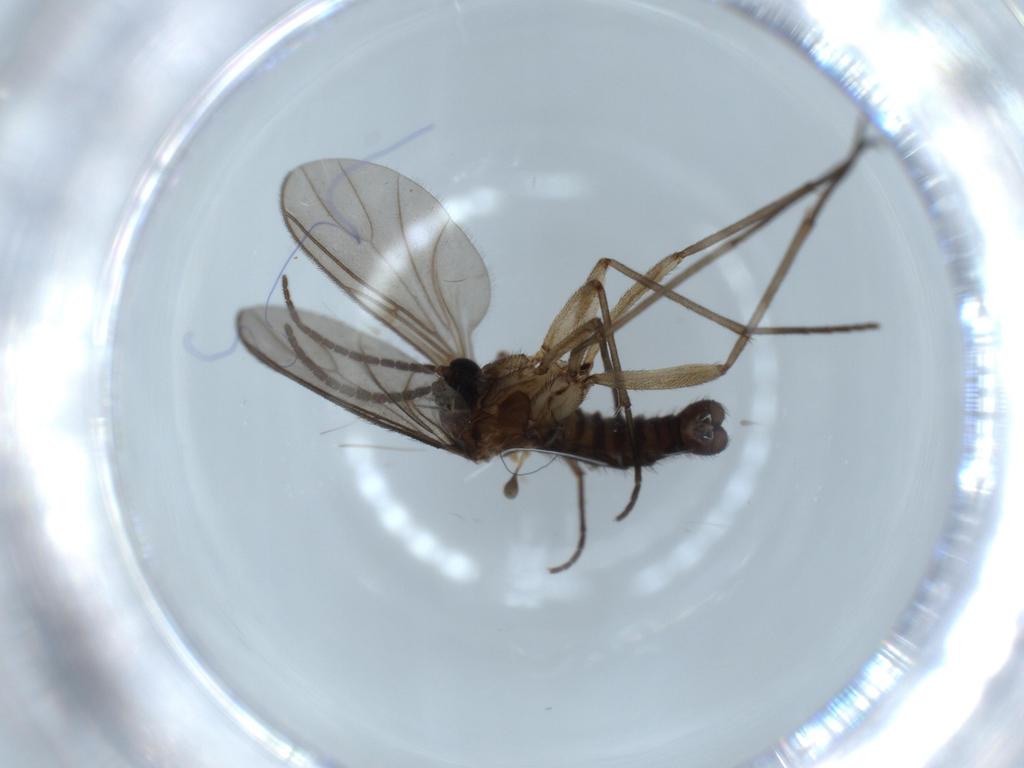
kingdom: Animalia
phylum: Arthropoda
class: Insecta
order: Diptera
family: Sciaridae
